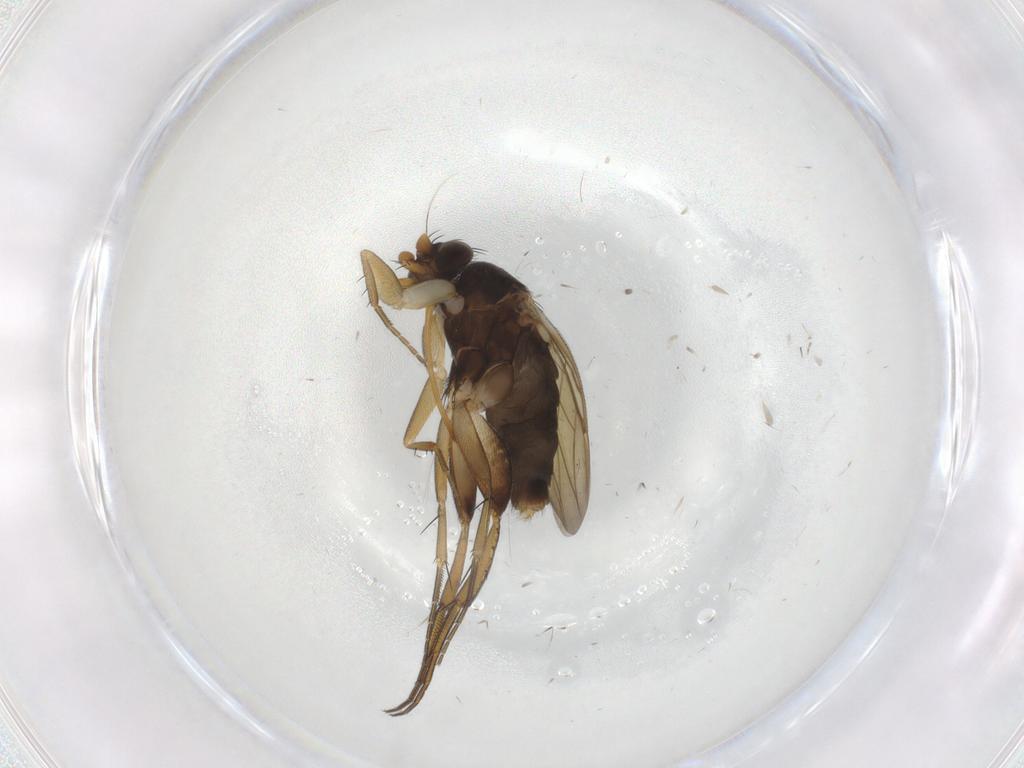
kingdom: Animalia
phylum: Arthropoda
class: Insecta
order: Diptera
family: Phoridae
